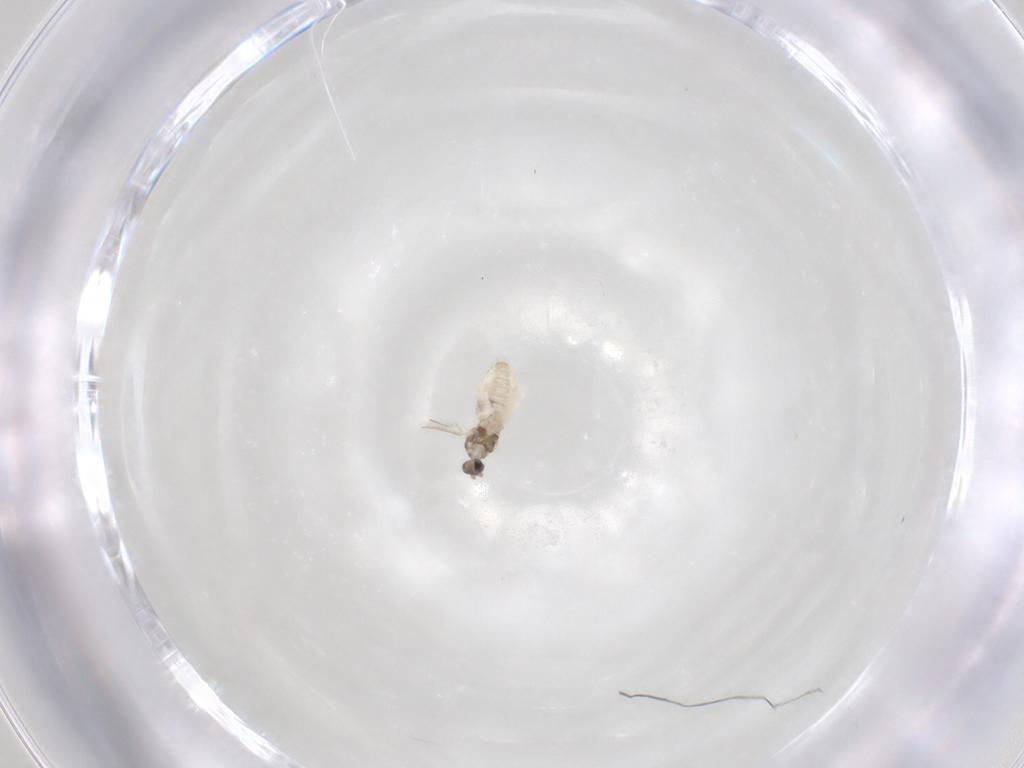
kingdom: Animalia
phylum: Arthropoda
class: Insecta
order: Diptera
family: Cecidomyiidae
